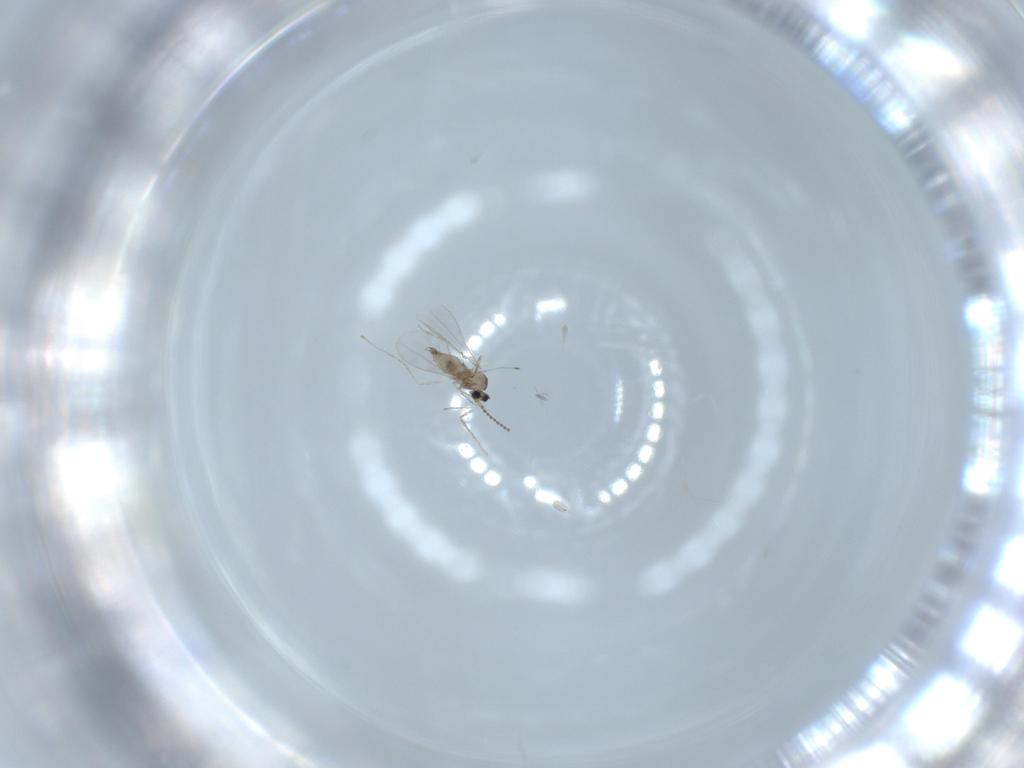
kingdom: Animalia
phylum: Arthropoda
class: Insecta
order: Diptera
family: Cecidomyiidae
